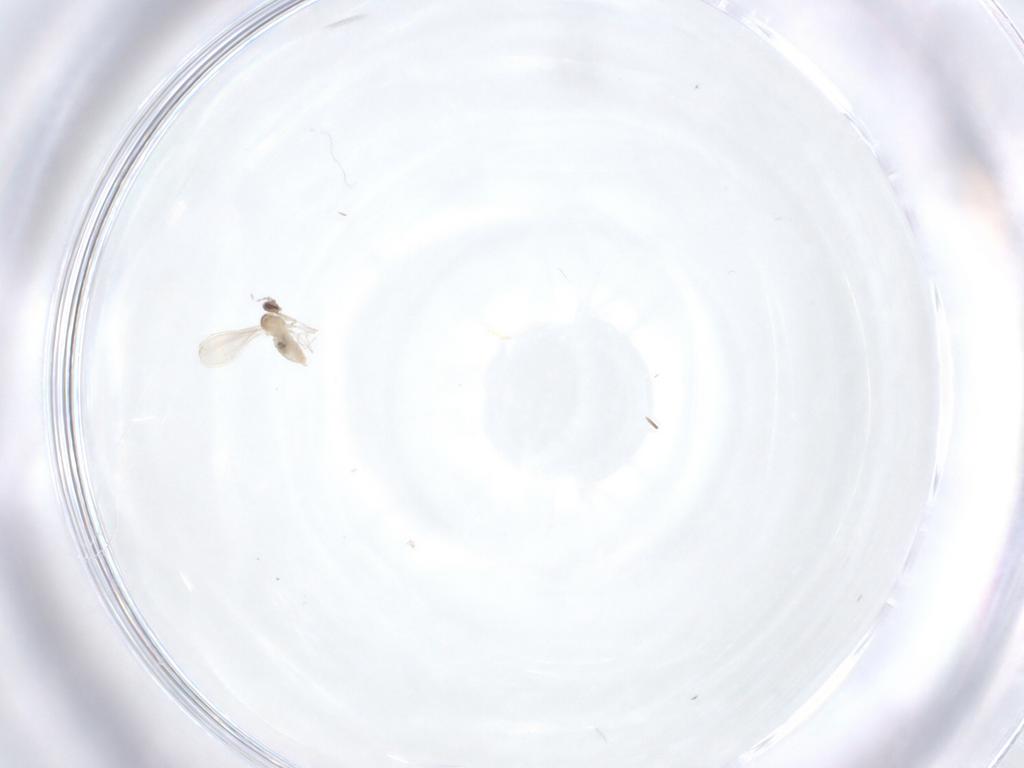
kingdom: Animalia
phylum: Arthropoda
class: Insecta
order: Diptera
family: Cecidomyiidae
